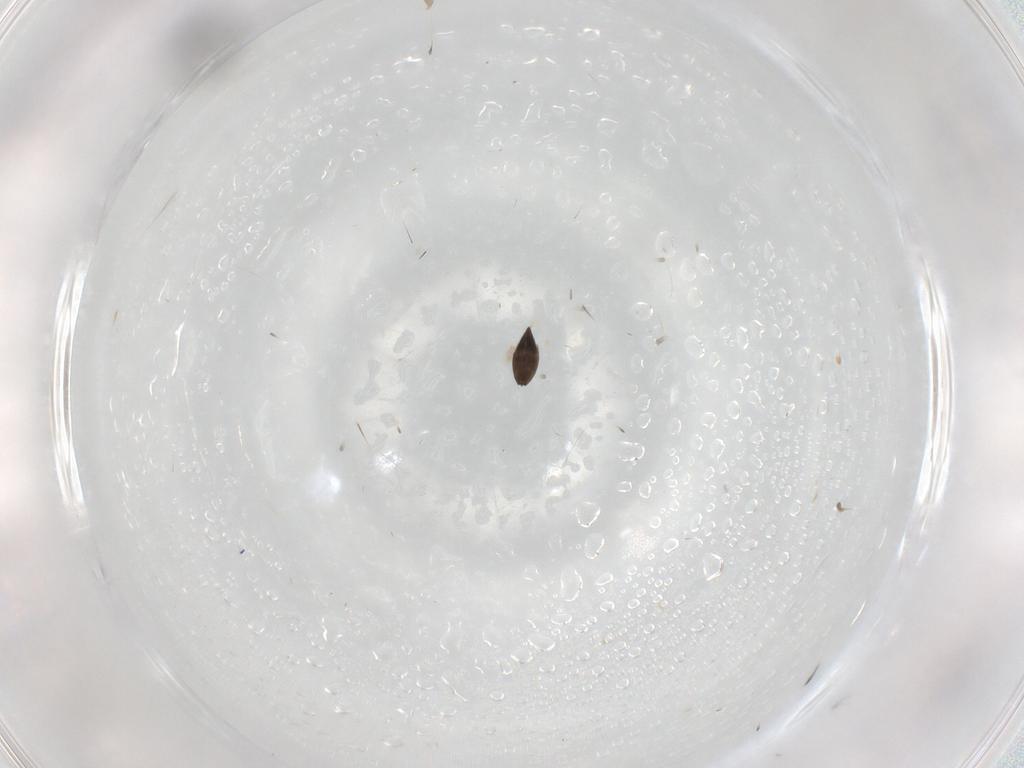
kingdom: Animalia
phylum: Arthropoda
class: Insecta
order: Hymenoptera
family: Scelionidae
